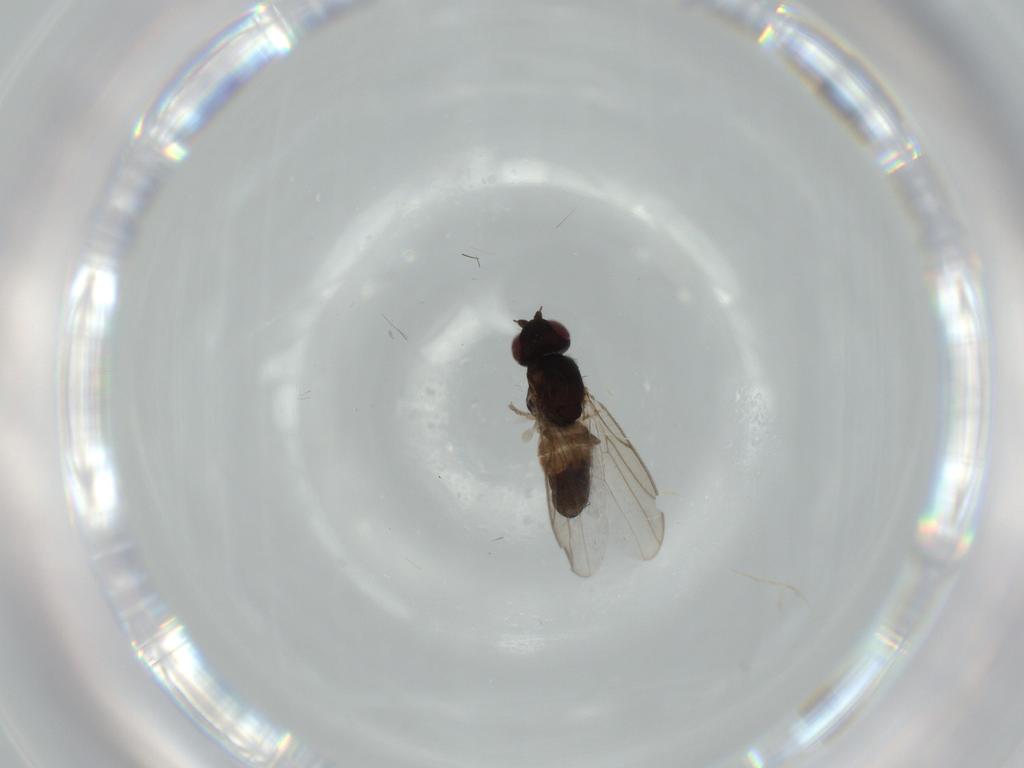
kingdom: Animalia
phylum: Arthropoda
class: Insecta
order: Diptera
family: Chloropidae
